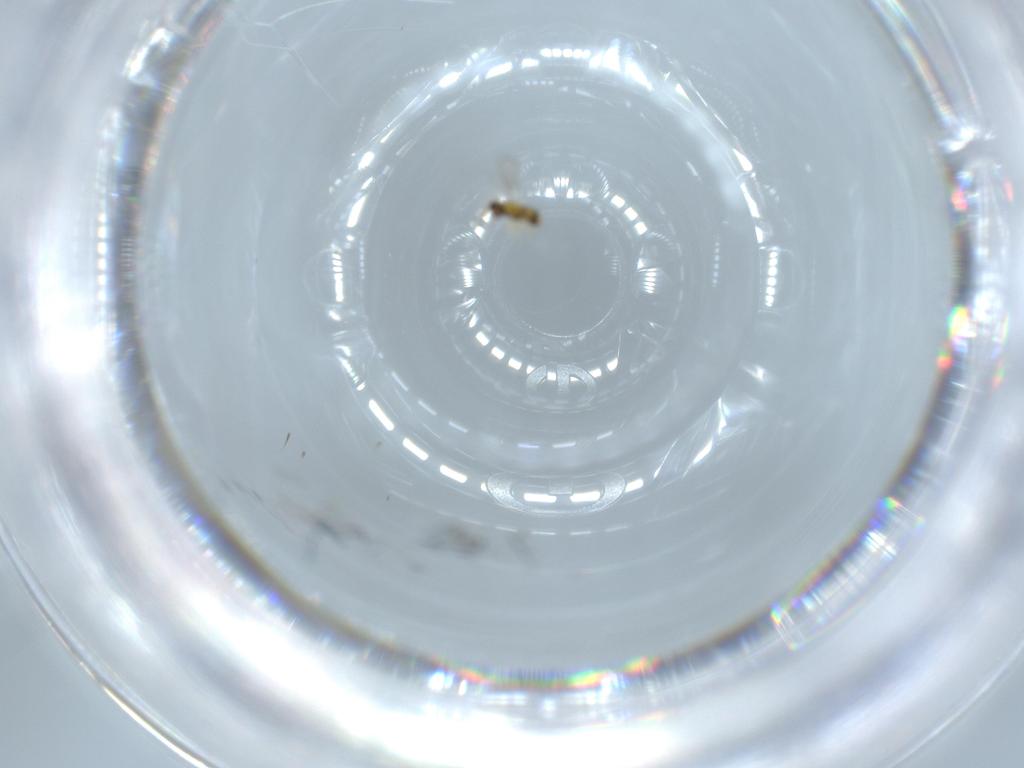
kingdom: Animalia
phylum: Arthropoda
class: Insecta
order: Hymenoptera
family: Aphelinidae
